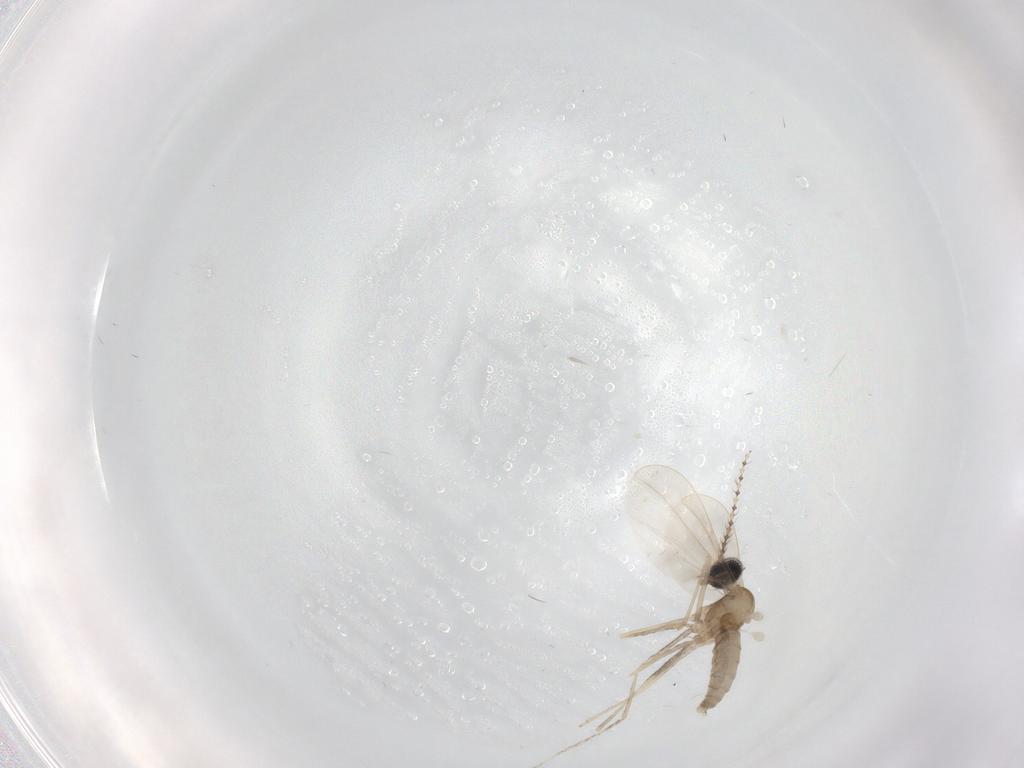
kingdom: Animalia
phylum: Arthropoda
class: Insecta
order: Diptera
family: Cecidomyiidae
